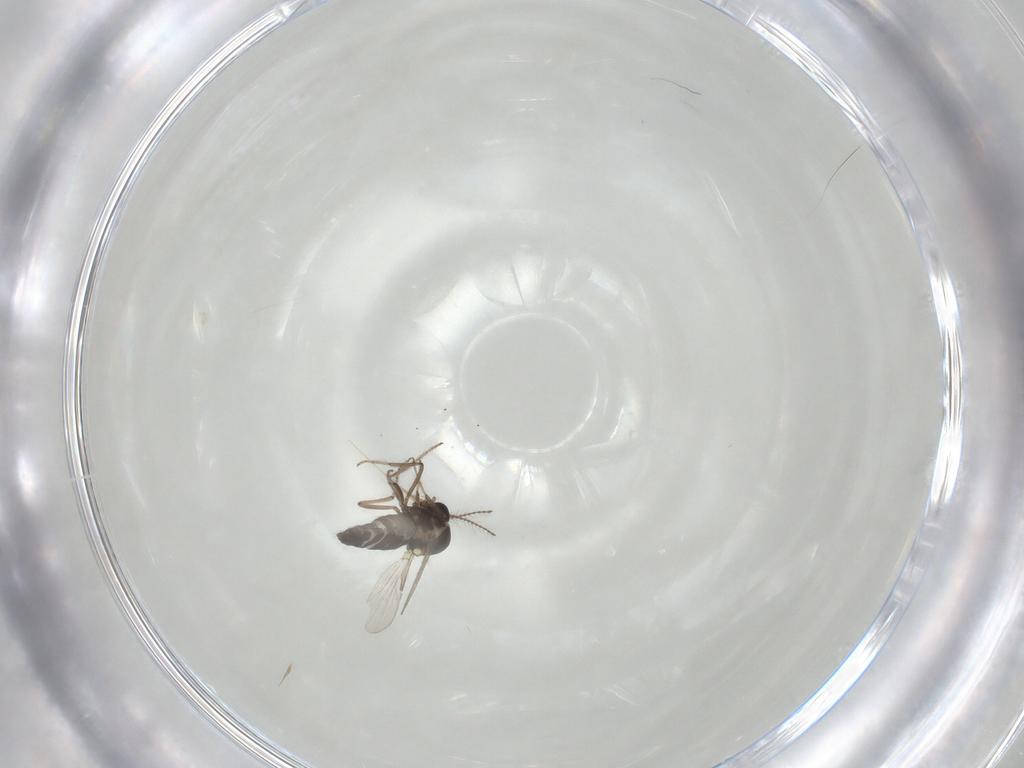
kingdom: Animalia
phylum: Arthropoda
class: Insecta
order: Diptera
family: Ceratopogonidae
